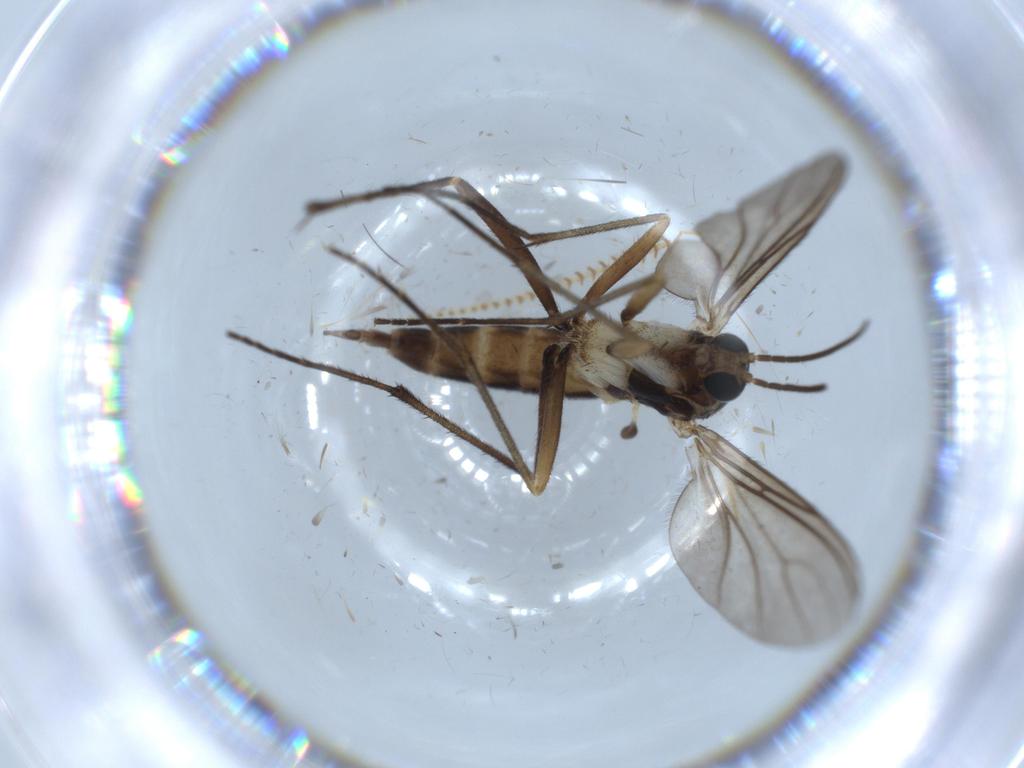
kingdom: Animalia
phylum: Arthropoda
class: Insecta
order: Diptera
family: Sciaridae
